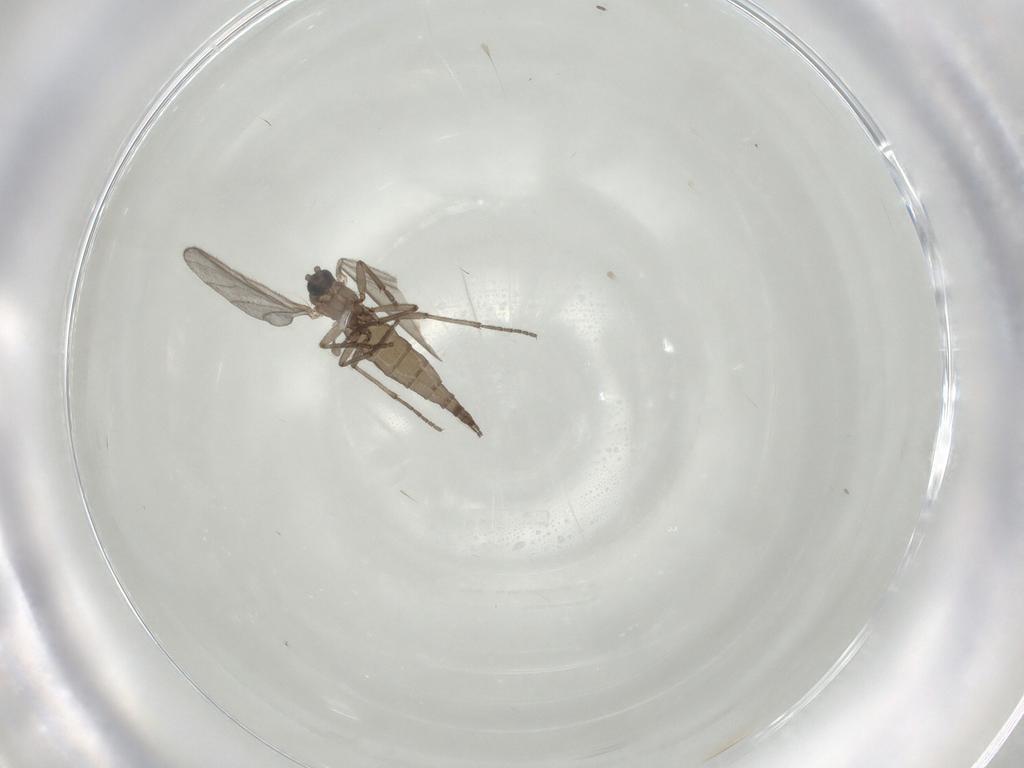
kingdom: Animalia
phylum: Arthropoda
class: Insecta
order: Diptera
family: Sciaridae
